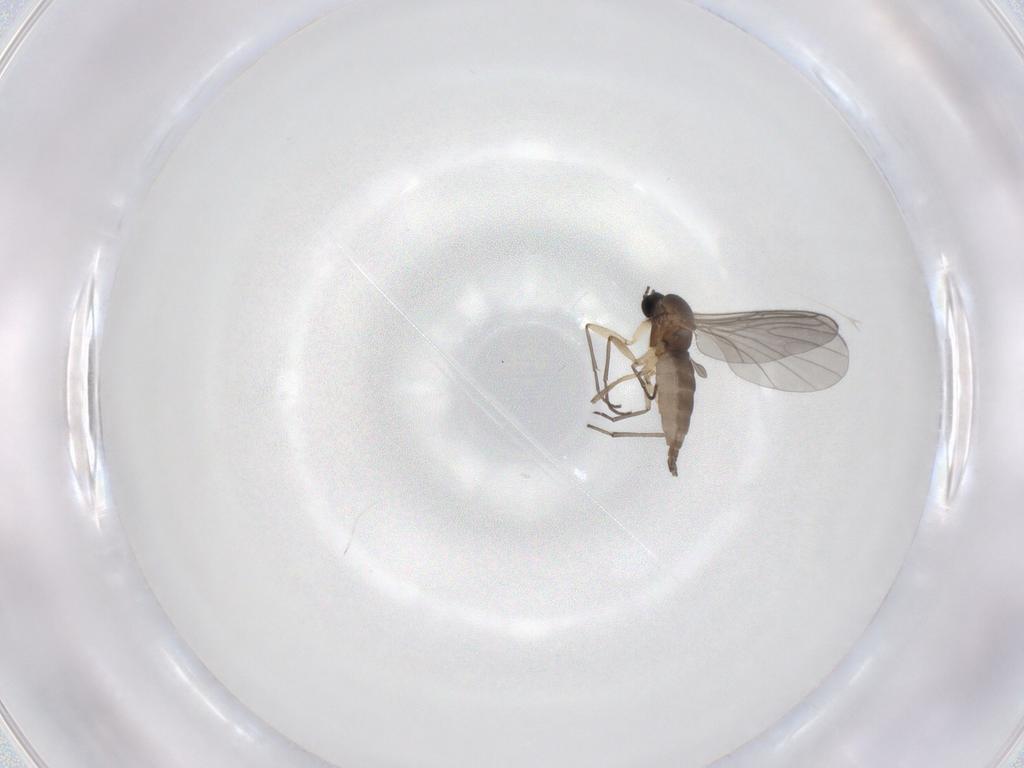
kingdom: Animalia
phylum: Arthropoda
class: Insecta
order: Diptera
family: Sciaridae
